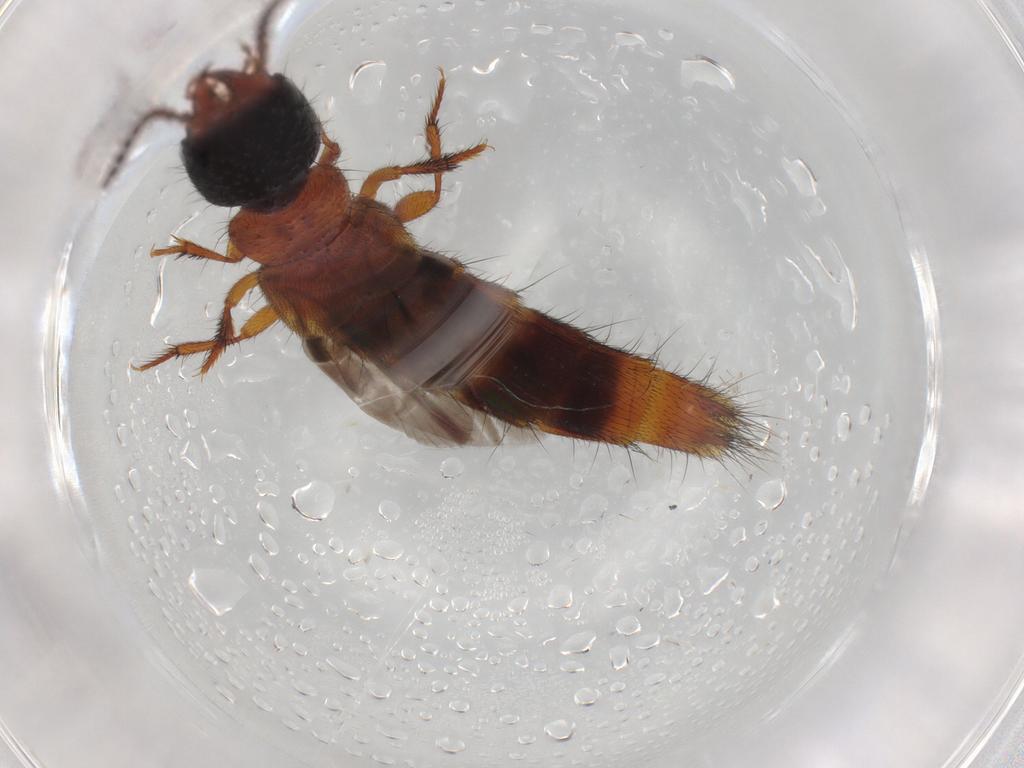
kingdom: Animalia
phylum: Arthropoda
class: Insecta
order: Coleoptera
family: Staphylinidae
